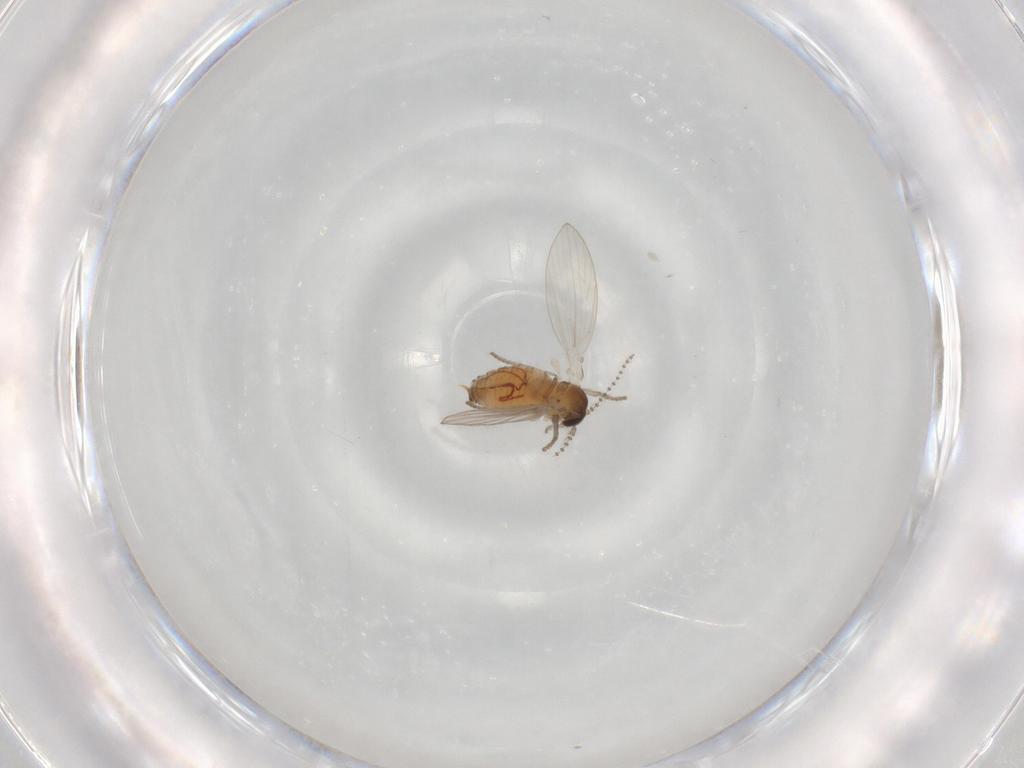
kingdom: Animalia
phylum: Arthropoda
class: Insecta
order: Diptera
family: Psychodidae
